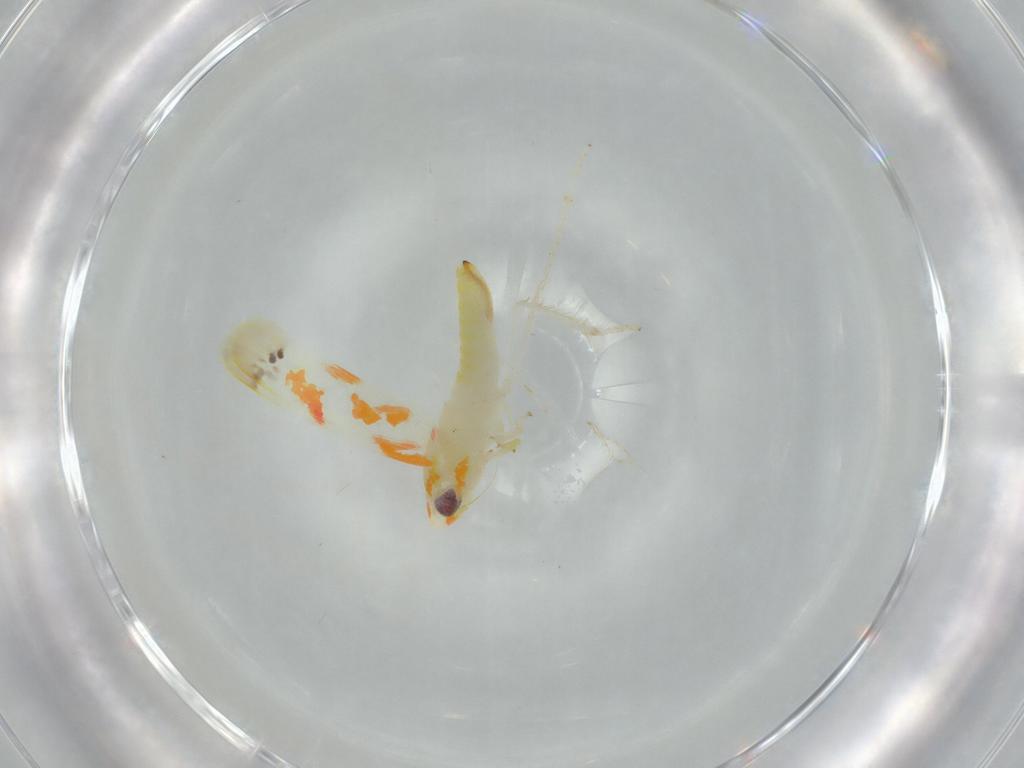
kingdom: Animalia
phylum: Arthropoda
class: Insecta
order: Hemiptera
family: Cicadellidae
